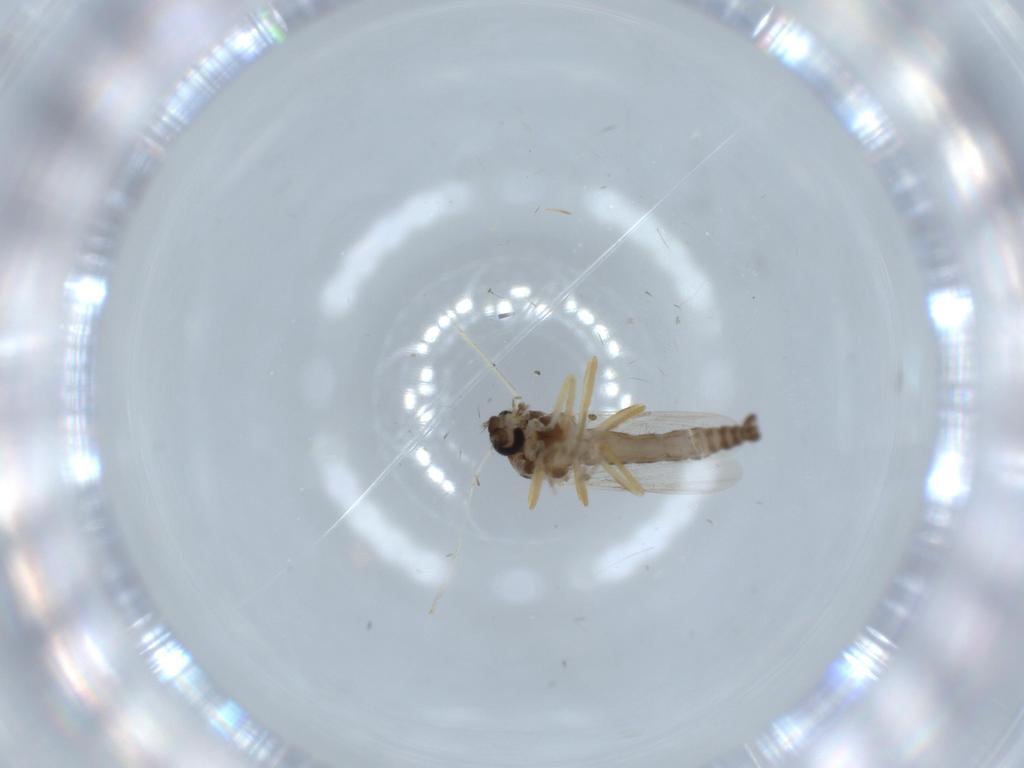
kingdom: Animalia
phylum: Arthropoda
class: Insecta
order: Diptera
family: Ceratopogonidae
